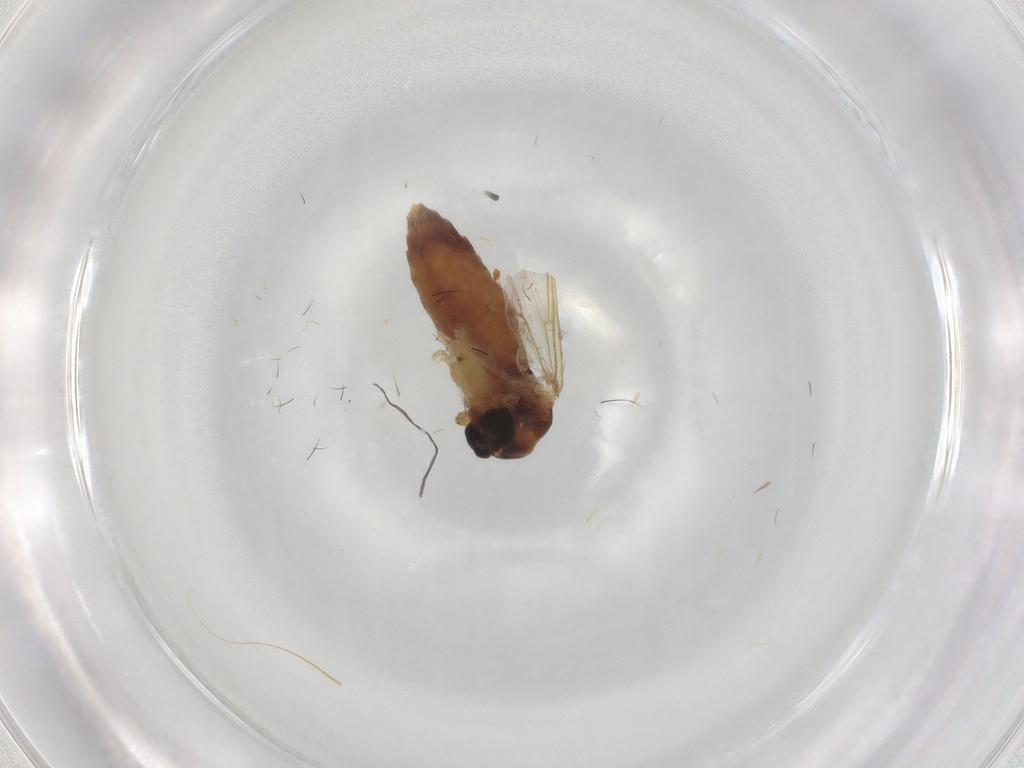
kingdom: Animalia
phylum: Arthropoda
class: Insecta
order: Diptera
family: Chironomidae
